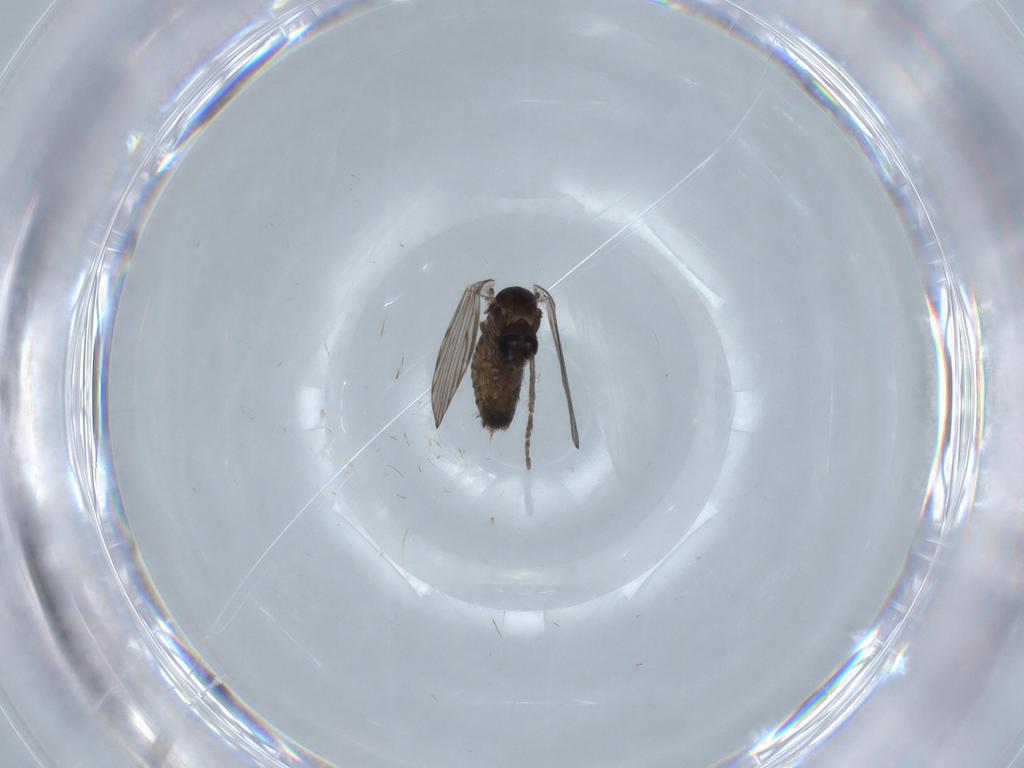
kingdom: Animalia
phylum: Arthropoda
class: Insecta
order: Diptera
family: Psychodidae
